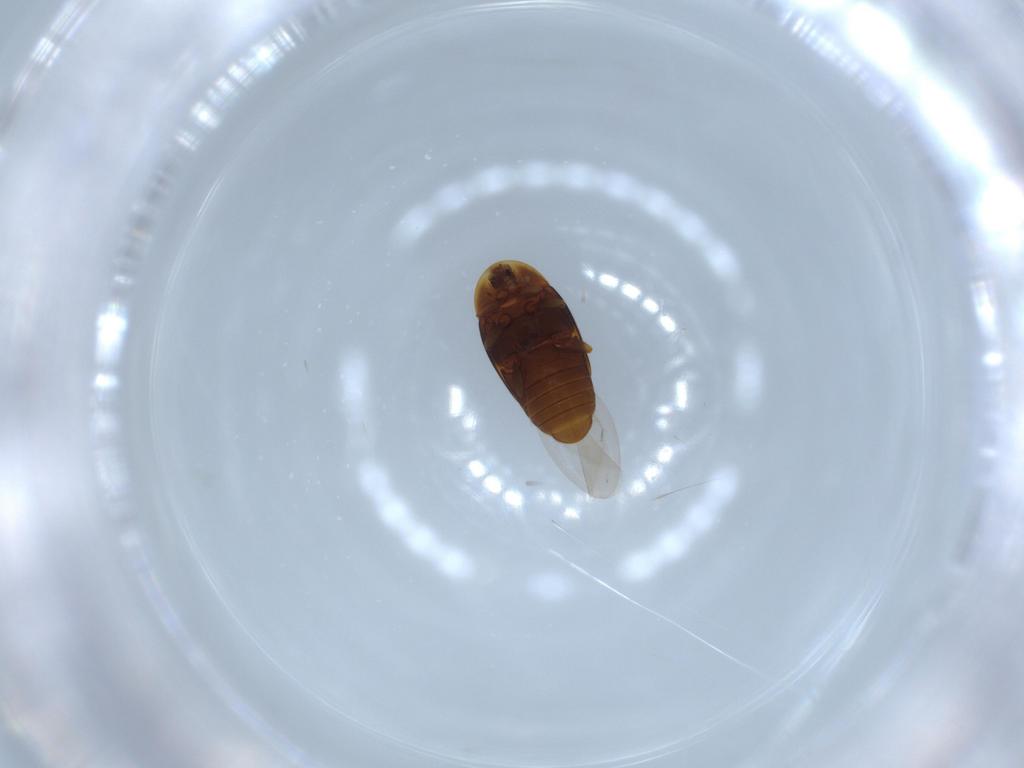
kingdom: Animalia
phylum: Arthropoda
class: Insecta
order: Coleoptera
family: Corylophidae
